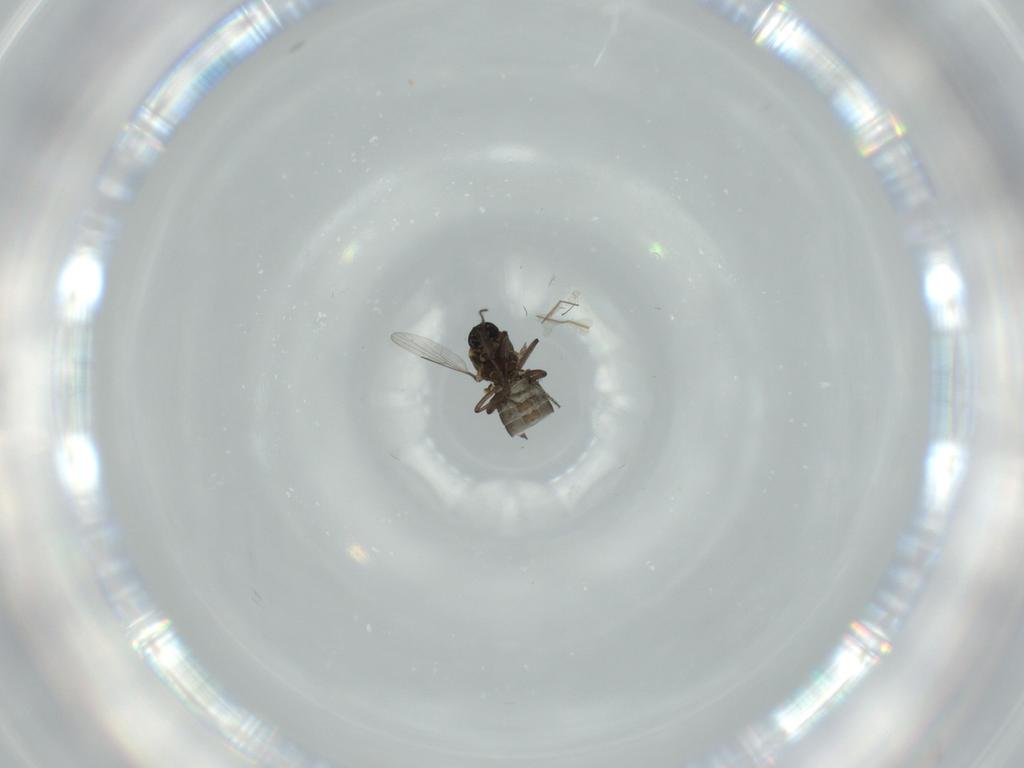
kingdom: Animalia
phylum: Arthropoda
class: Insecta
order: Diptera
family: Ceratopogonidae
